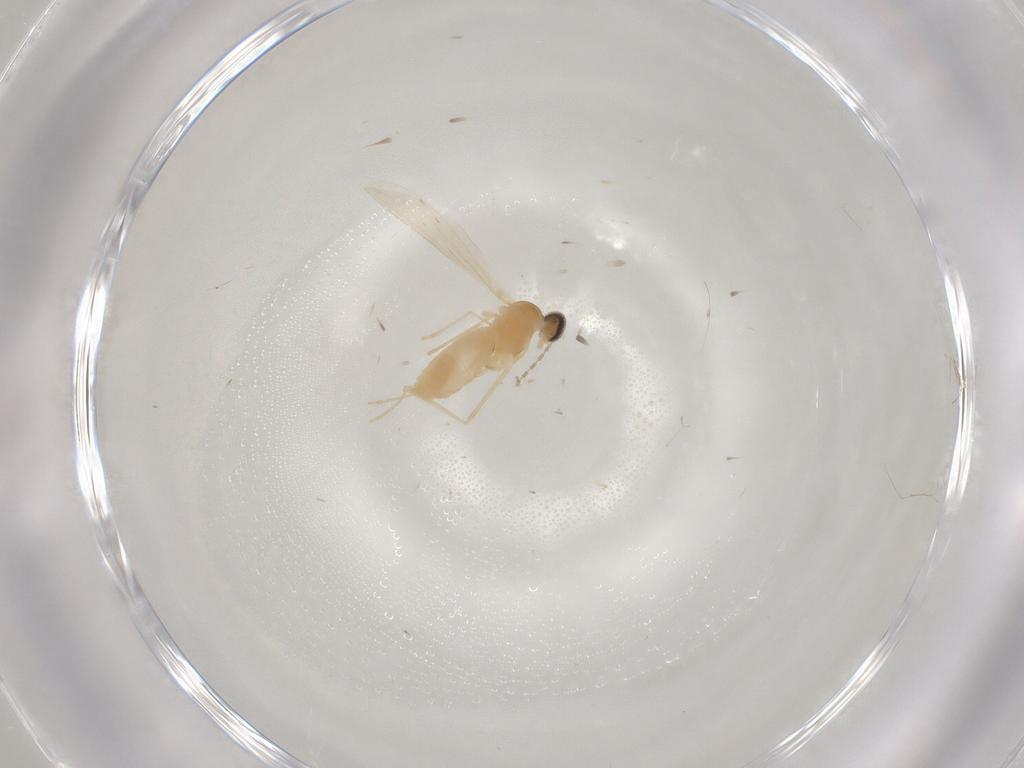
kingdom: Animalia
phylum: Arthropoda
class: Insecta
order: Diptera
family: Cecidomyiidae
